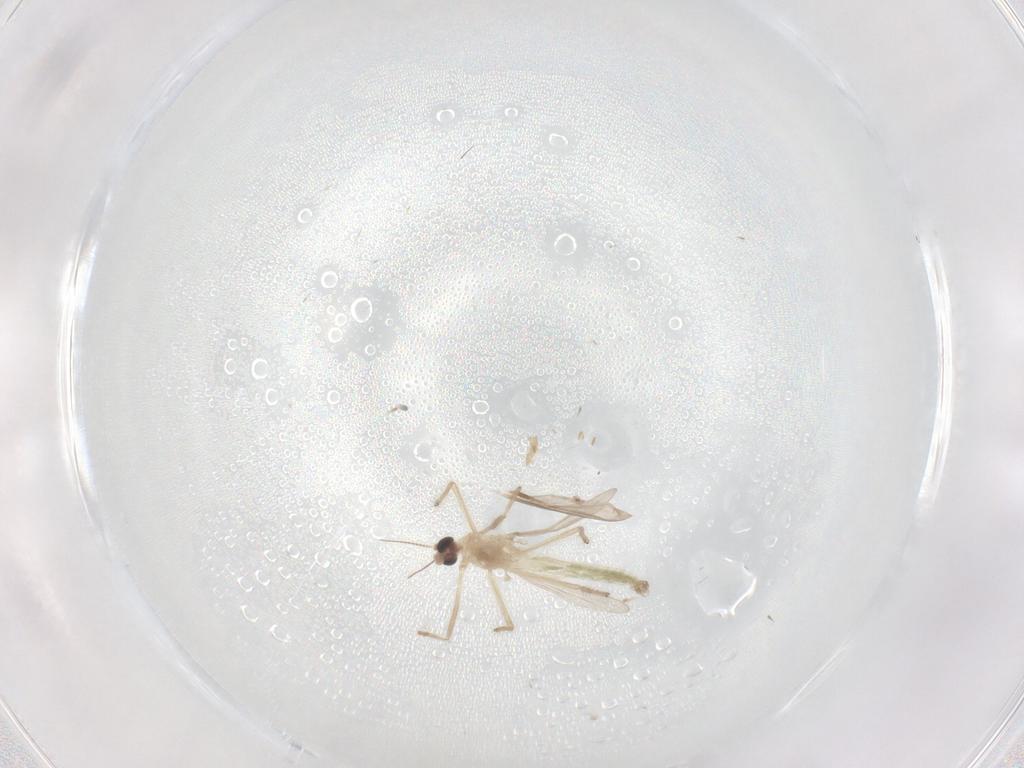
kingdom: Animalia
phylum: Arthropoda
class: Insecta
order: Diptera
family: Chironomidae
